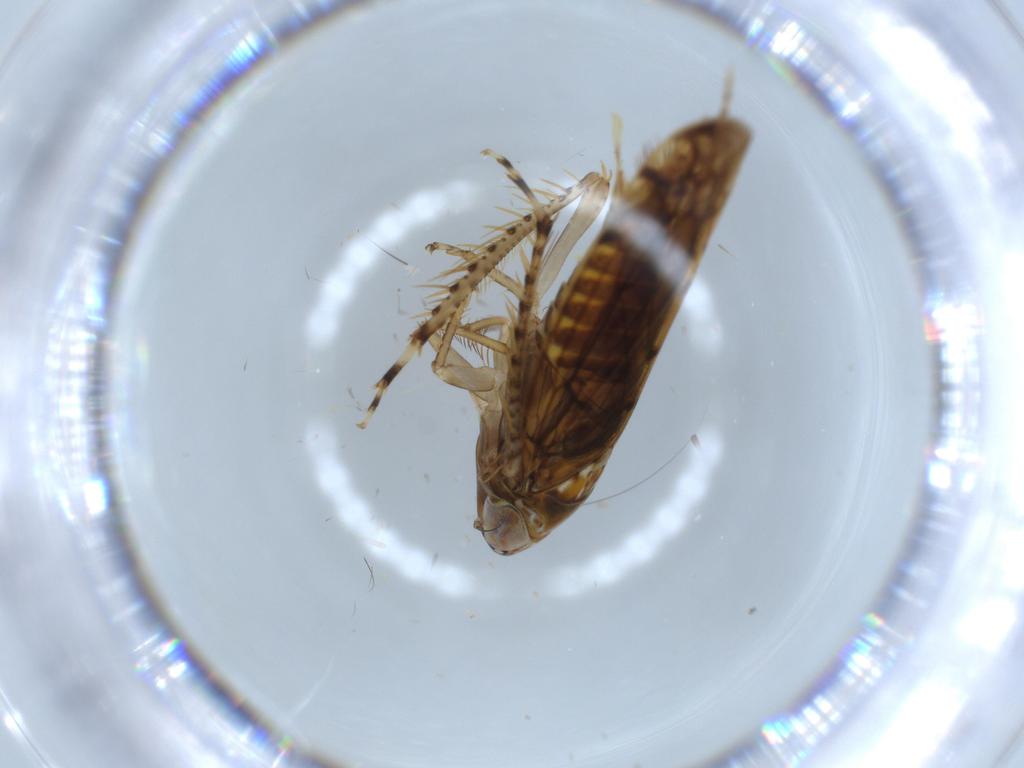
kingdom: Animalia
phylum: Arthropoda
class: Insecta
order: Hemiptera
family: Cicadellidae
